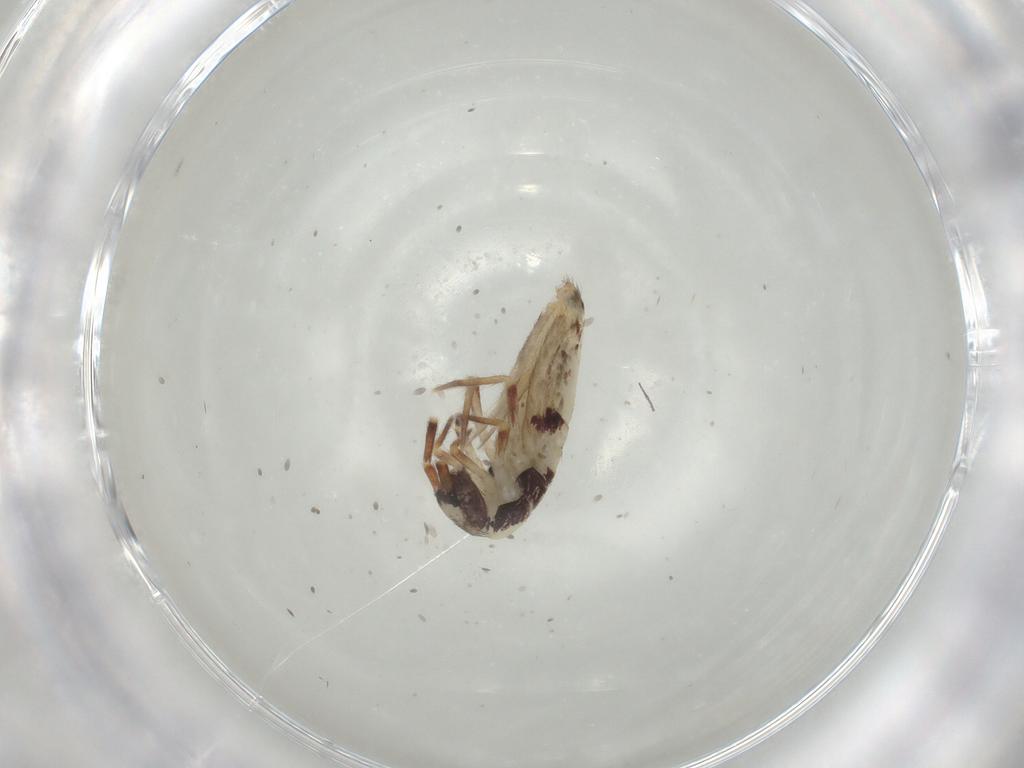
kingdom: Animalia
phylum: Arthropoda
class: Collembola
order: Entomobryomorpha
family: Entomobryidae
